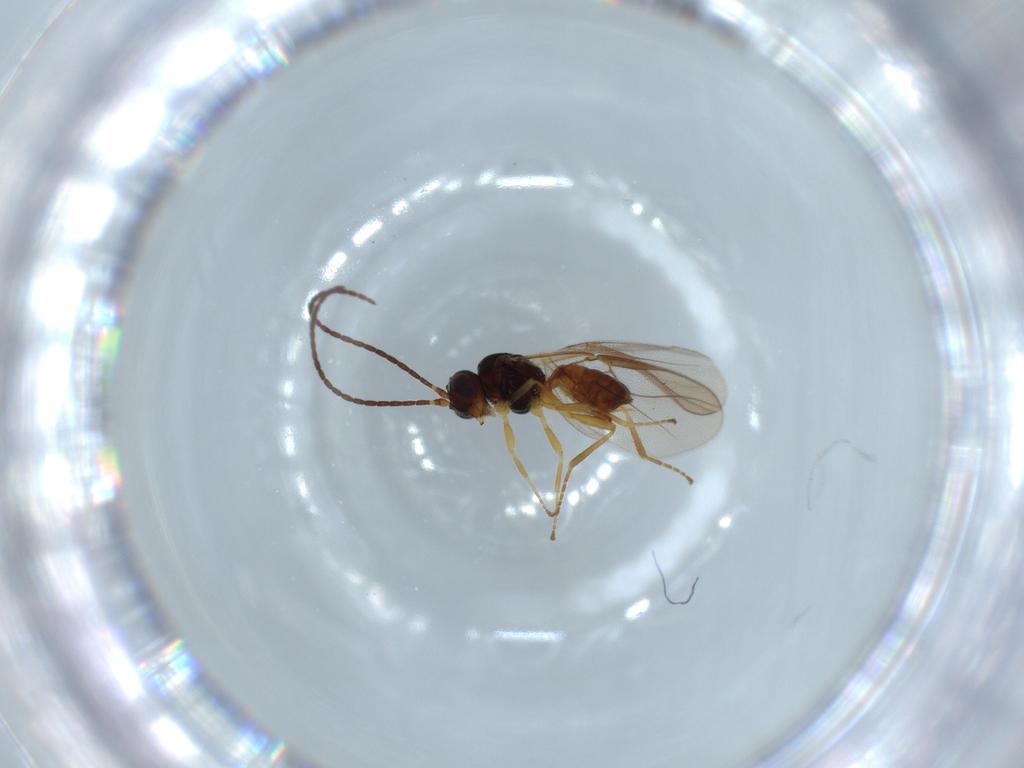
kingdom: Animalia
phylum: Arthropoda
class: Insecta
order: Hymenoptera
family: Braconidae
